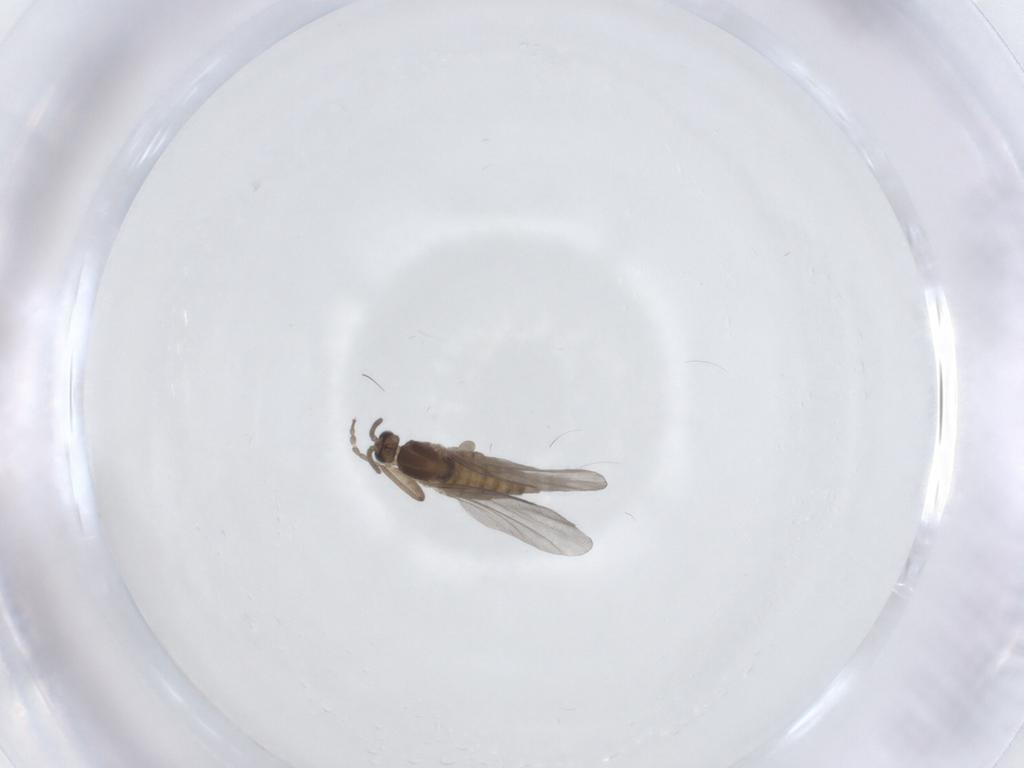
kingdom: Animalia
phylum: Arthropoda
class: Insecta
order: Diptera
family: Cecidomyiidae
